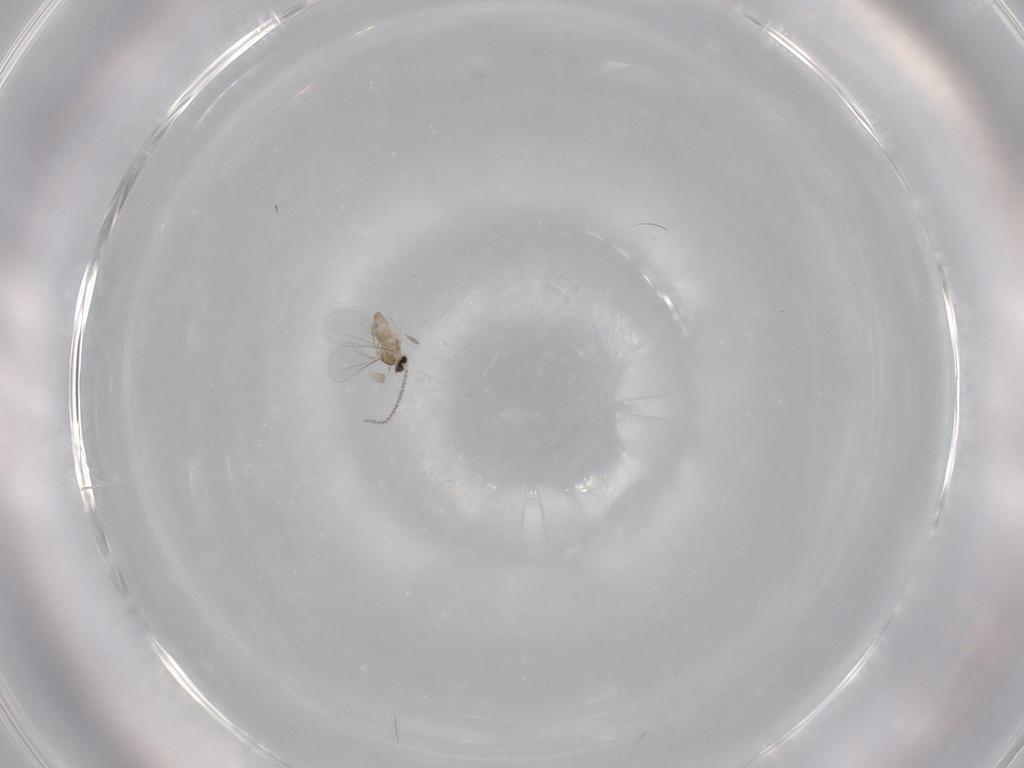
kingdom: Animalia
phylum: Arthropoda
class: Insecta
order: Diptera
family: Cecidomyiidae
